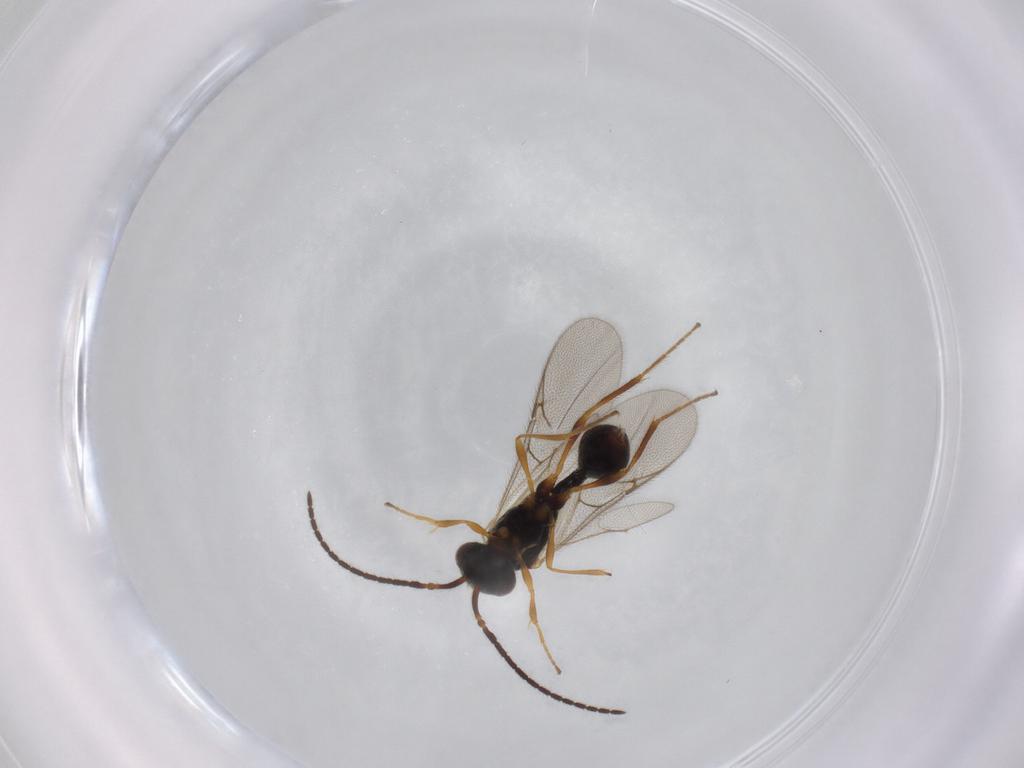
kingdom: Animalia
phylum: Arthropoda
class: Insecta
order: Hymenoptera
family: Diapriidae
